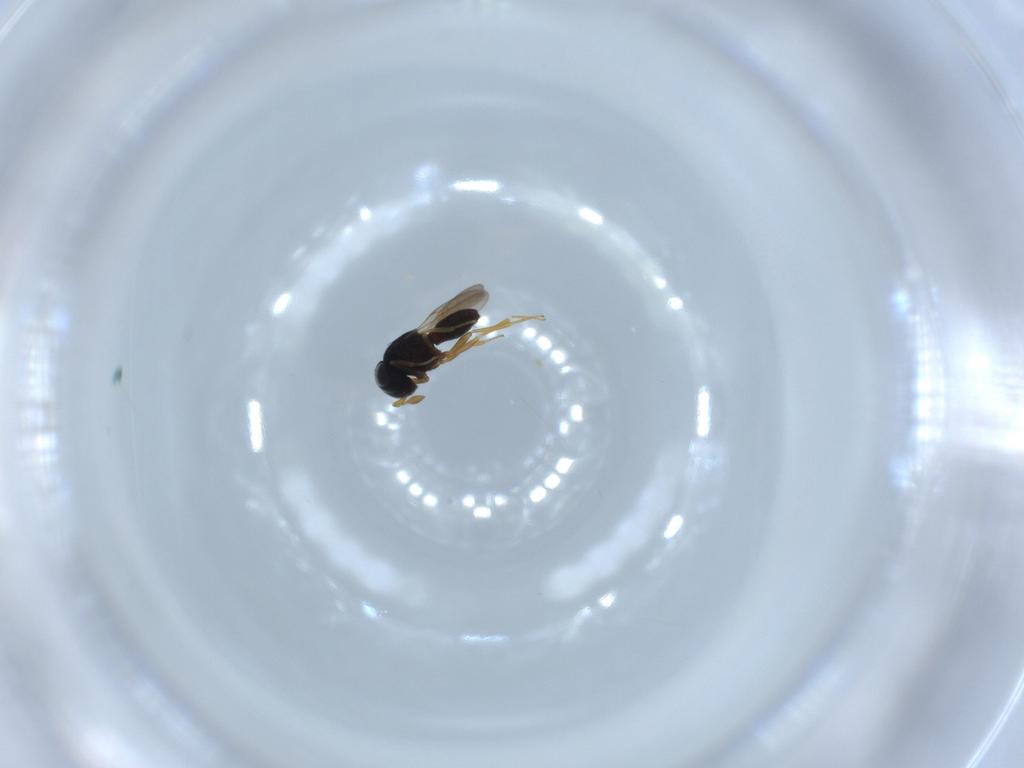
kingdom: Animalia
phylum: Arthropoda
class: Insecta
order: Hymenoptera
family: Scelionidae
